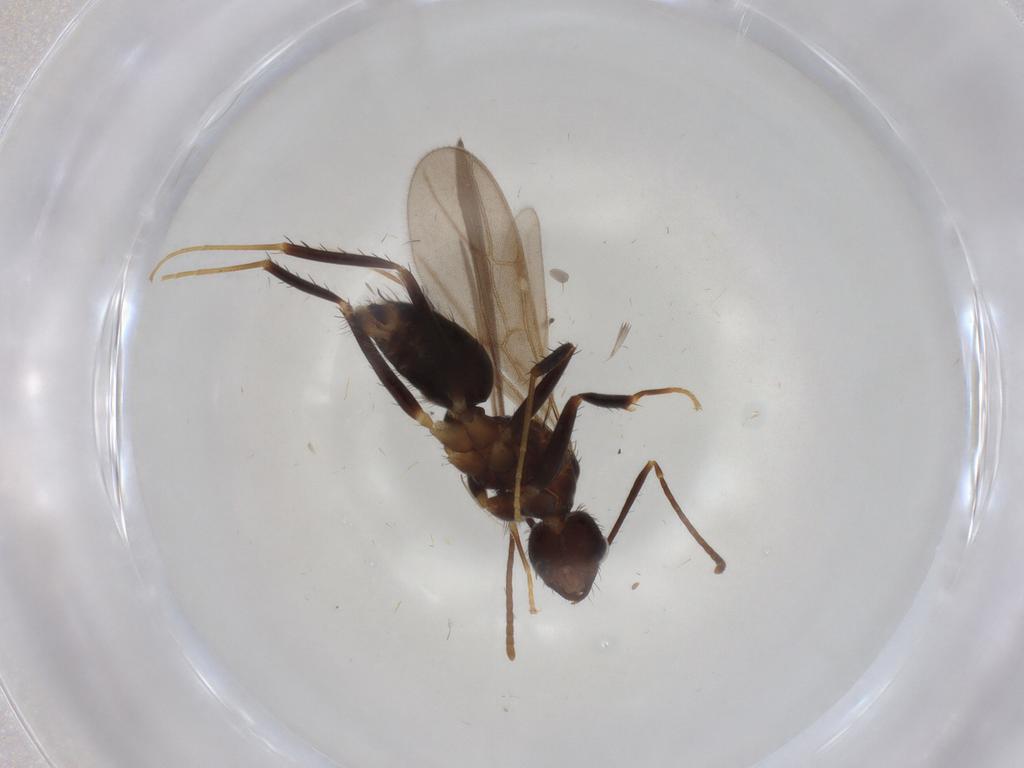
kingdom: Animalia
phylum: Arthropoda
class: Insecta
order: Hymenoptera
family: Formicidae
